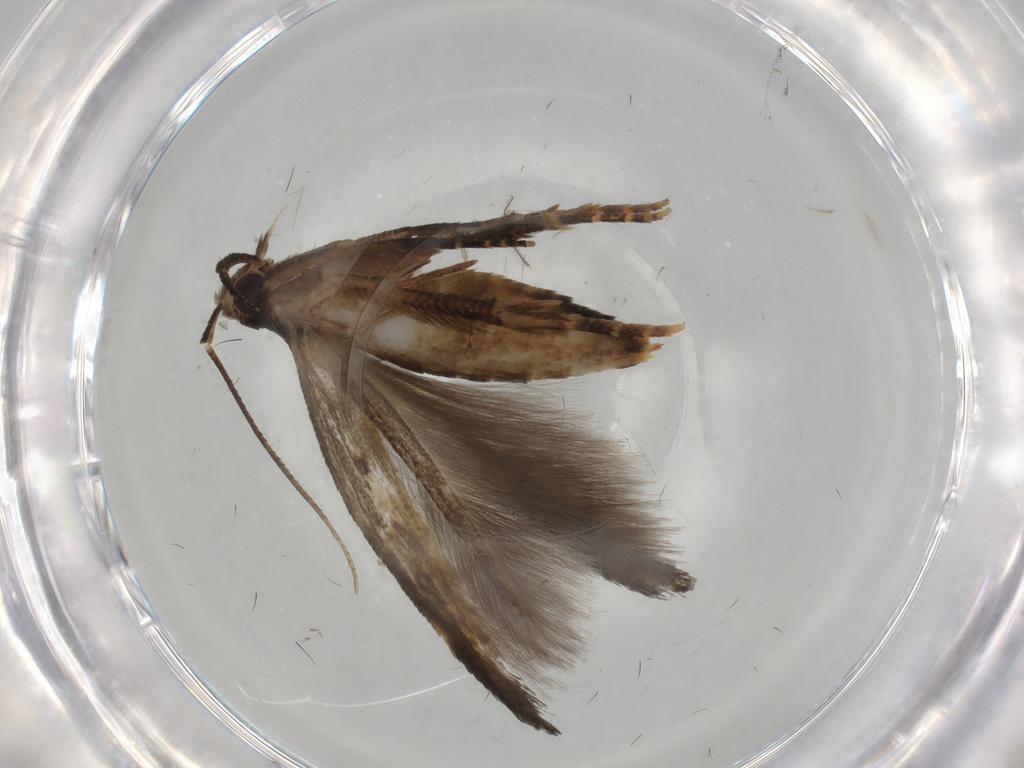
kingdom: Animalia
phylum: Arthropoda
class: Insecta
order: Lepidoptera
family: Cosmopterigidae
